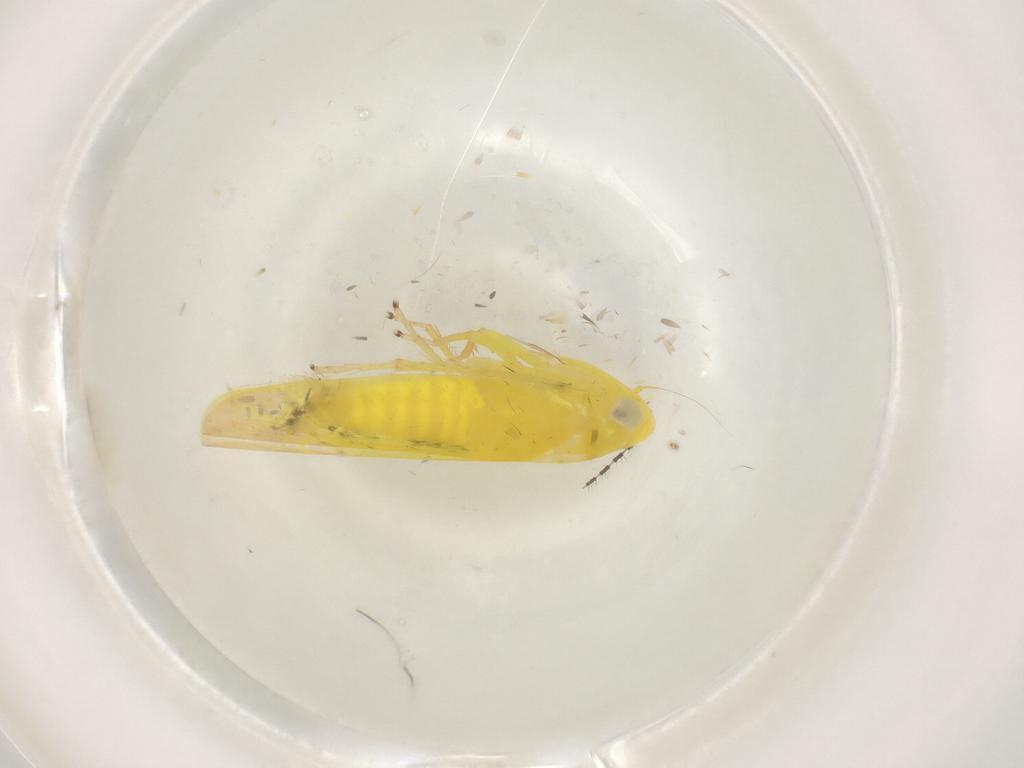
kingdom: Animalia
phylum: Arthropoda
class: Insecta
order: Hemiptera
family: Cicadellidae
